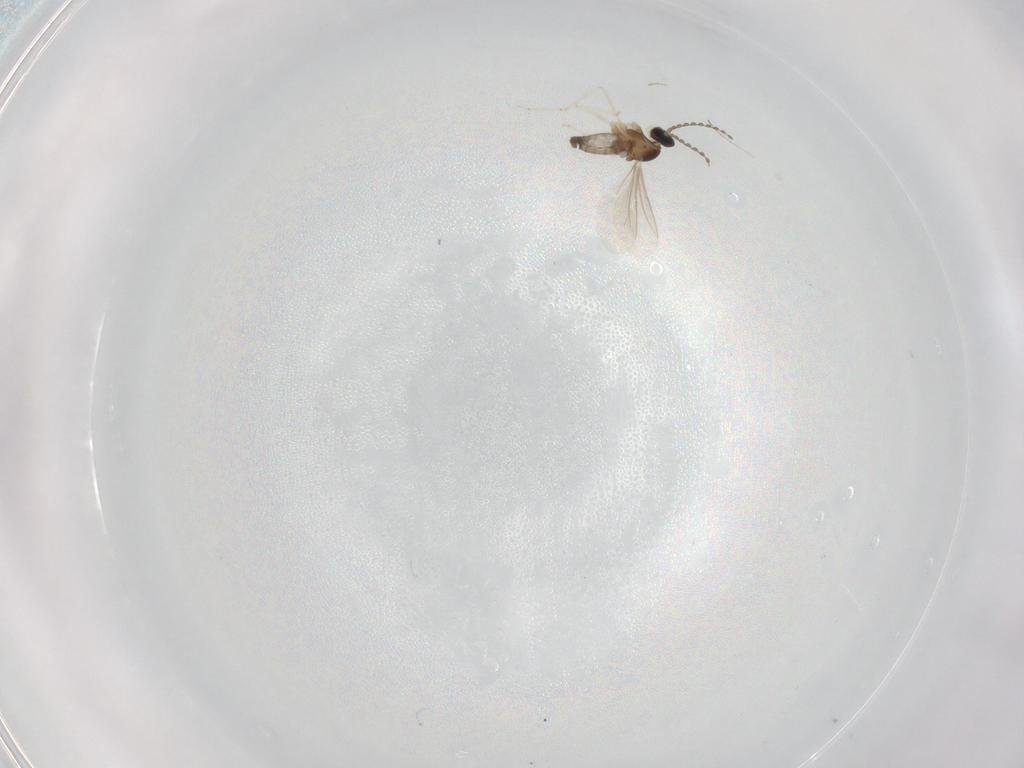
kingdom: Animalia
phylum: Arthropoda
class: Insecta
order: Diptera
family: Cecidomyiidae
